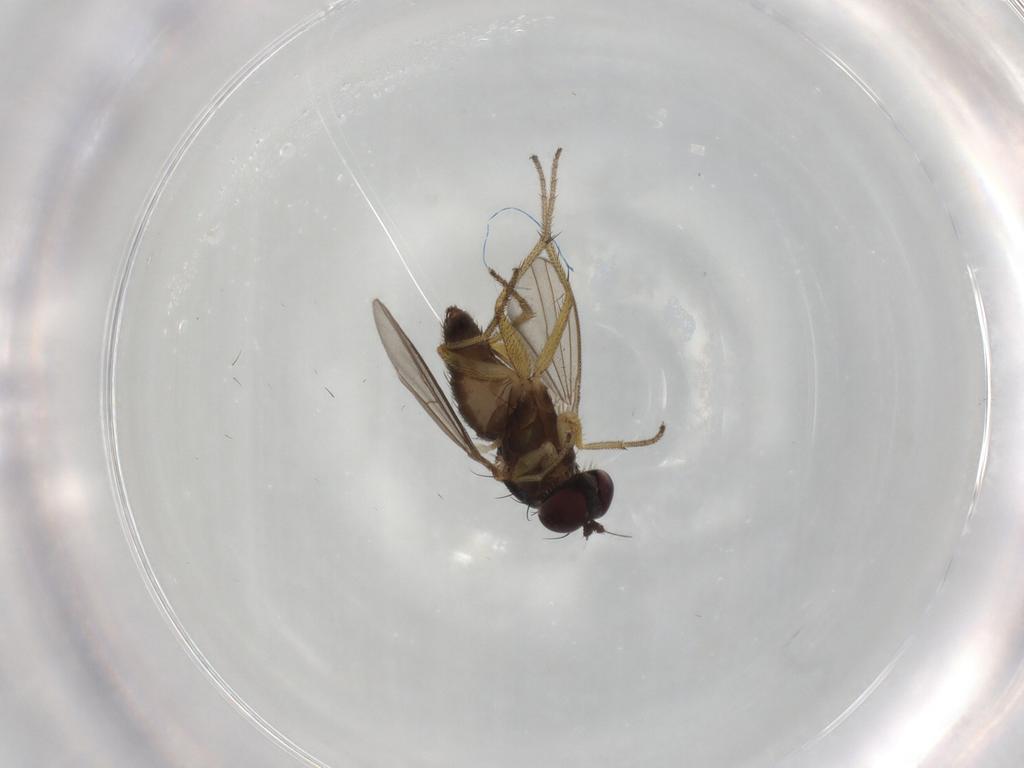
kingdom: Animalia
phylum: Arthropoda
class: Insecta
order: Diptera
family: Dolichopodidae
